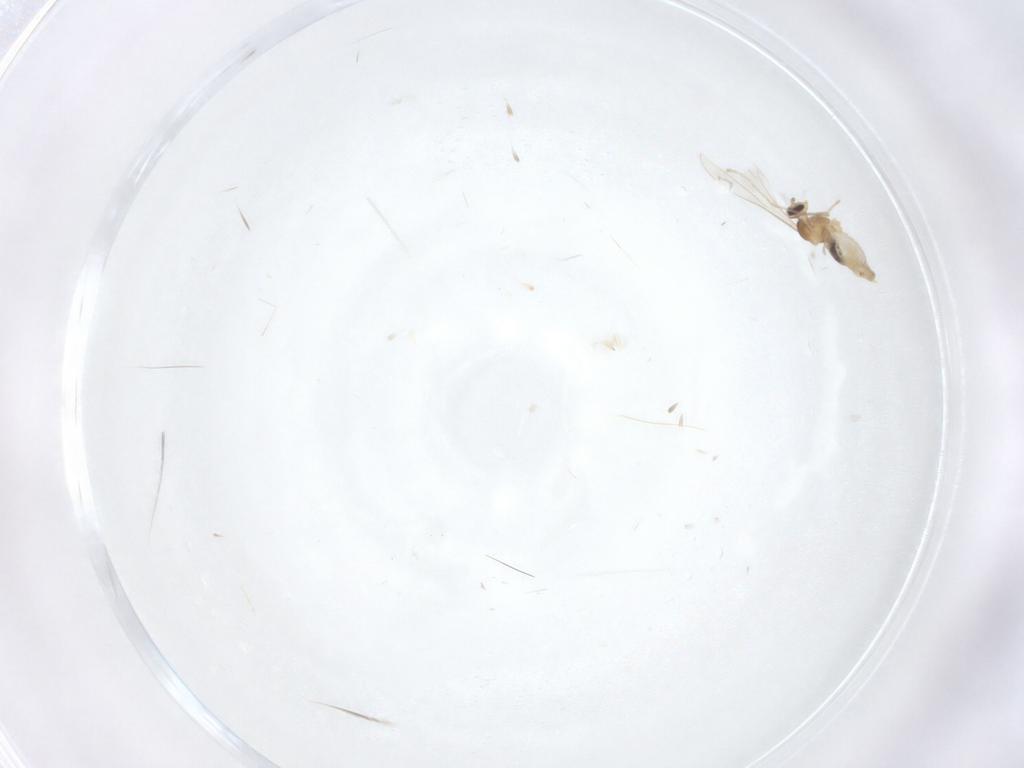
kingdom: Animalia
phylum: Arthropoda
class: Insecta
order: Diptera
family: Cecidomyiidae
